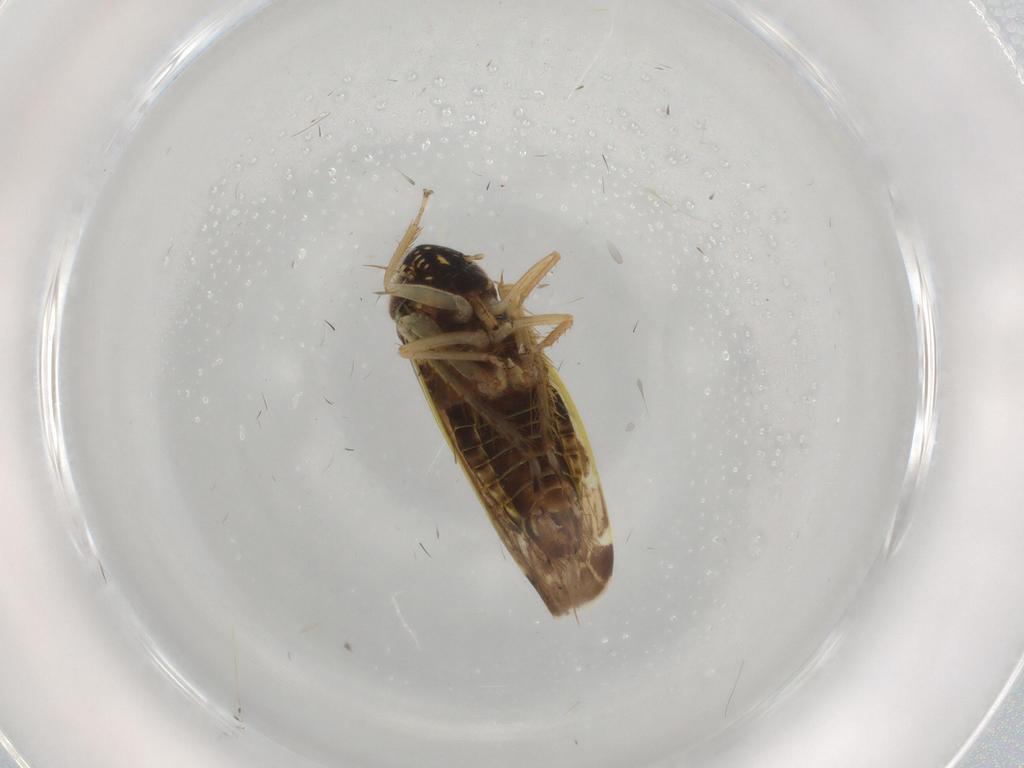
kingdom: Animalia
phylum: Arthropoda
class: Insecta
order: Hemiptera
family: Cicadellidae
